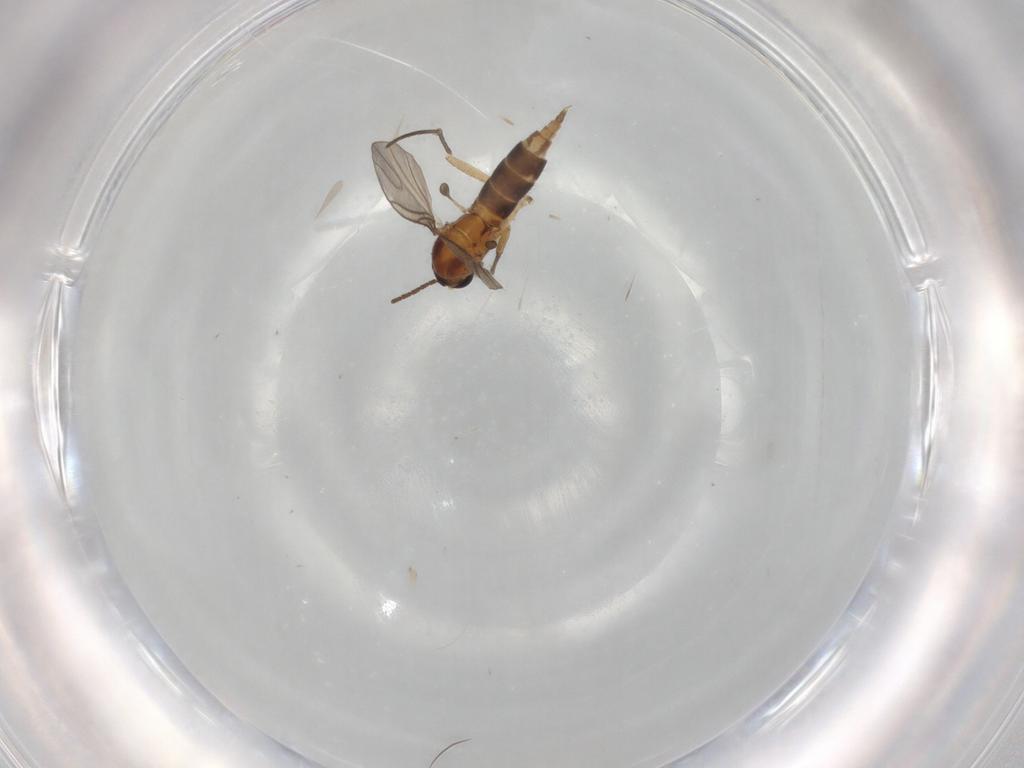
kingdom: Animalia
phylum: Arthropoda
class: Insecta
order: Diptera
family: Sciaridae
